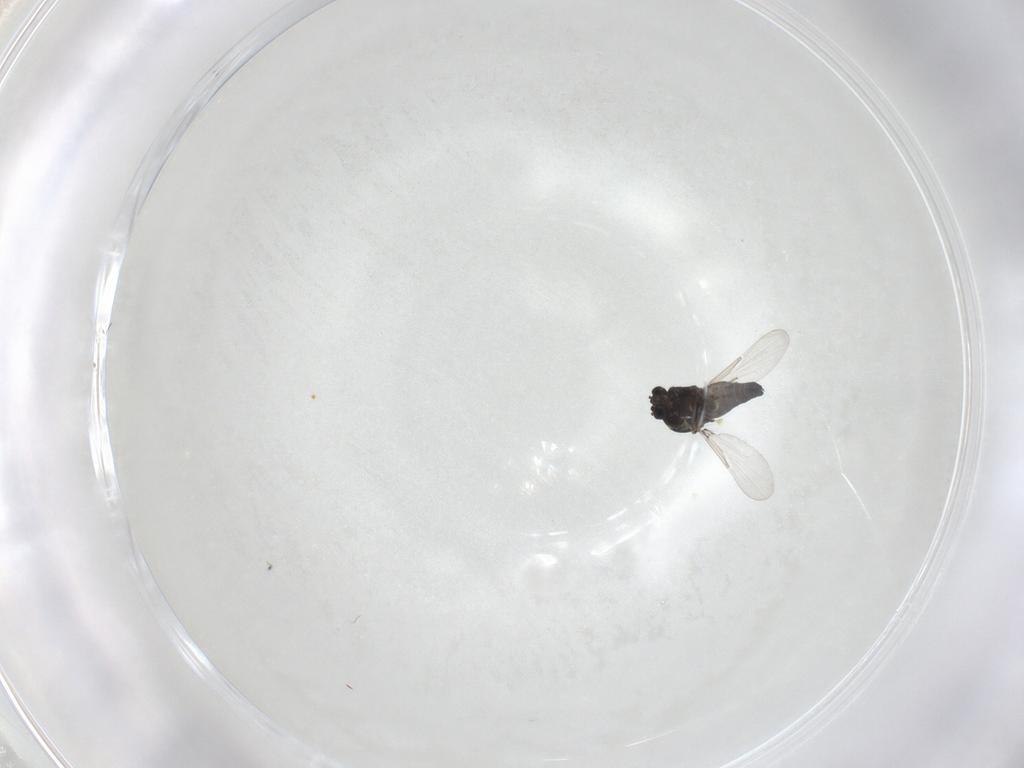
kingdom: Animalia
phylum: Arthropoda
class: Insecta
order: Diptera
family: Ceratopogonidae
